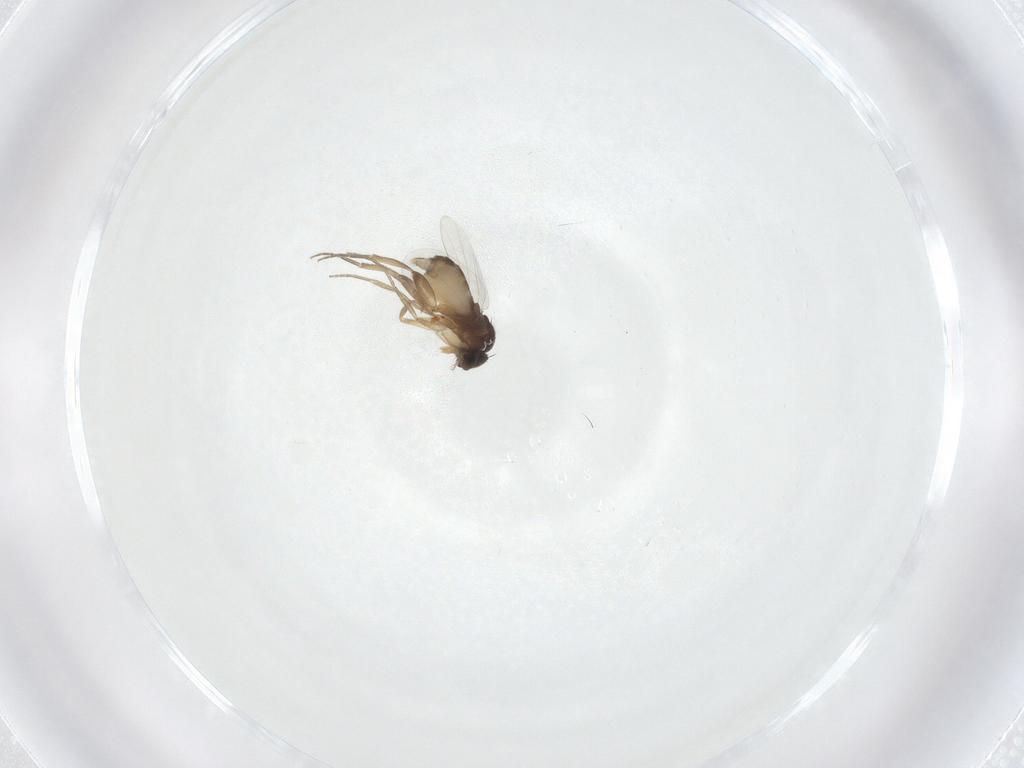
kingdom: Animalia
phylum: Arthropoda
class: Insecta
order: Diptera
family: Phoridae
